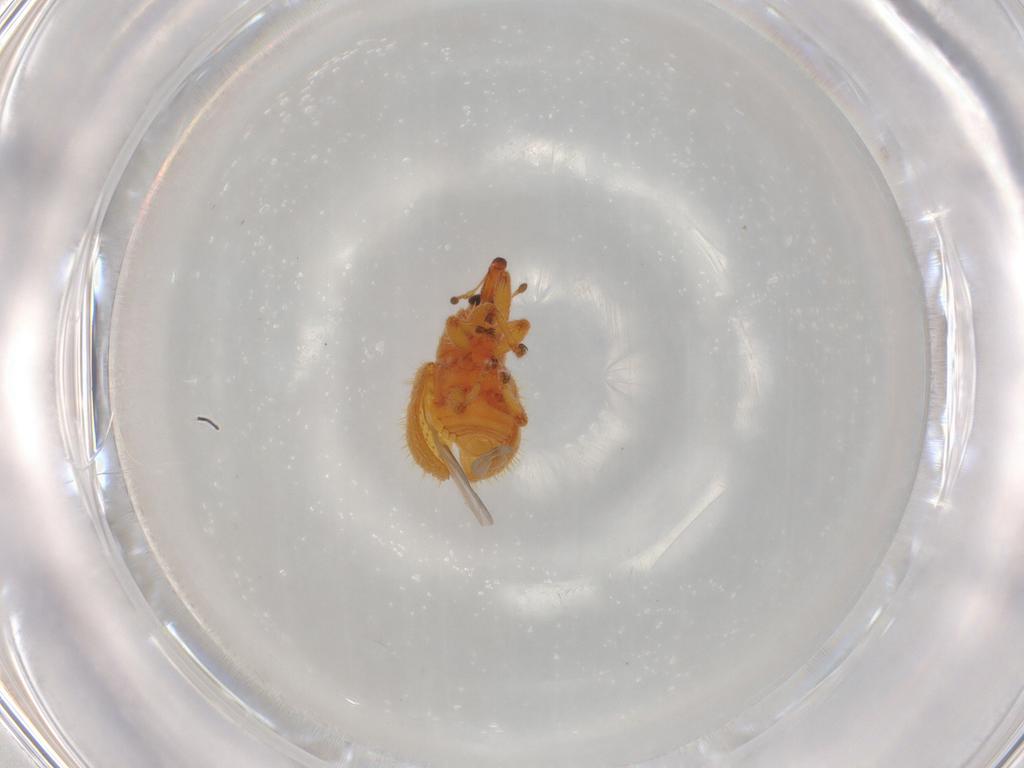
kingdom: Animalia
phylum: Arthropoda
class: Insecta
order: Coleoptera
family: Curculionidae
